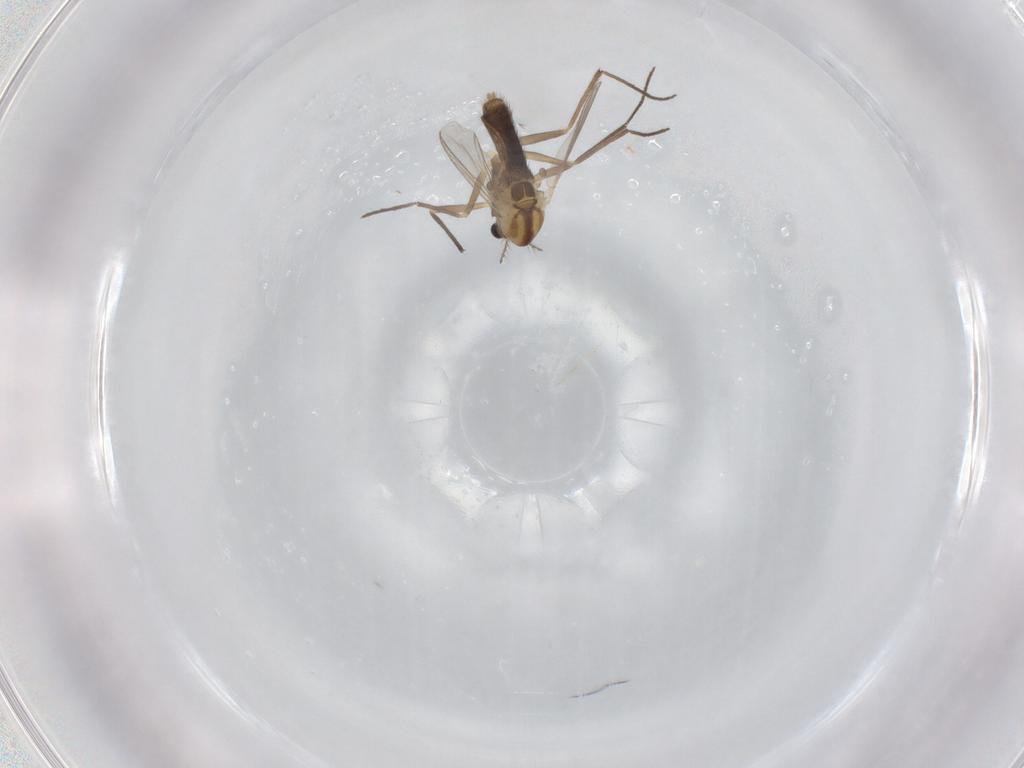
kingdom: Animalia
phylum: Arthropoda
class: Insecta
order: Diptera
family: Chironomidae
